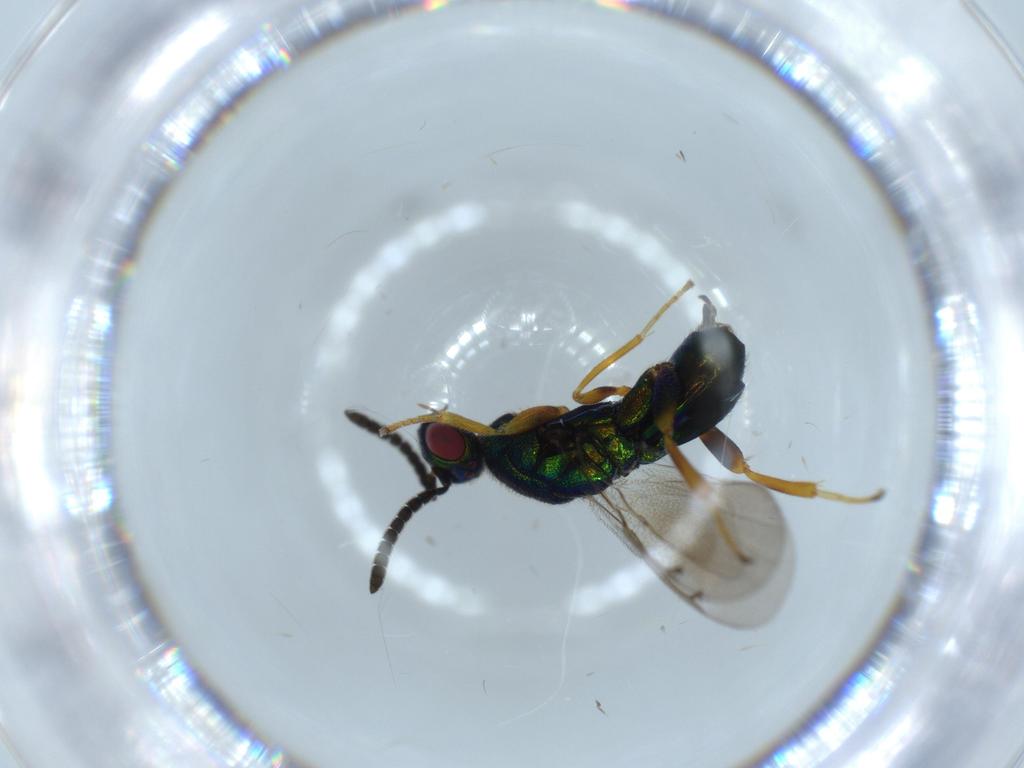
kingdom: Animalia
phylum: Arthropoda
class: Insecta
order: Hymenoptera
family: Torymidae
